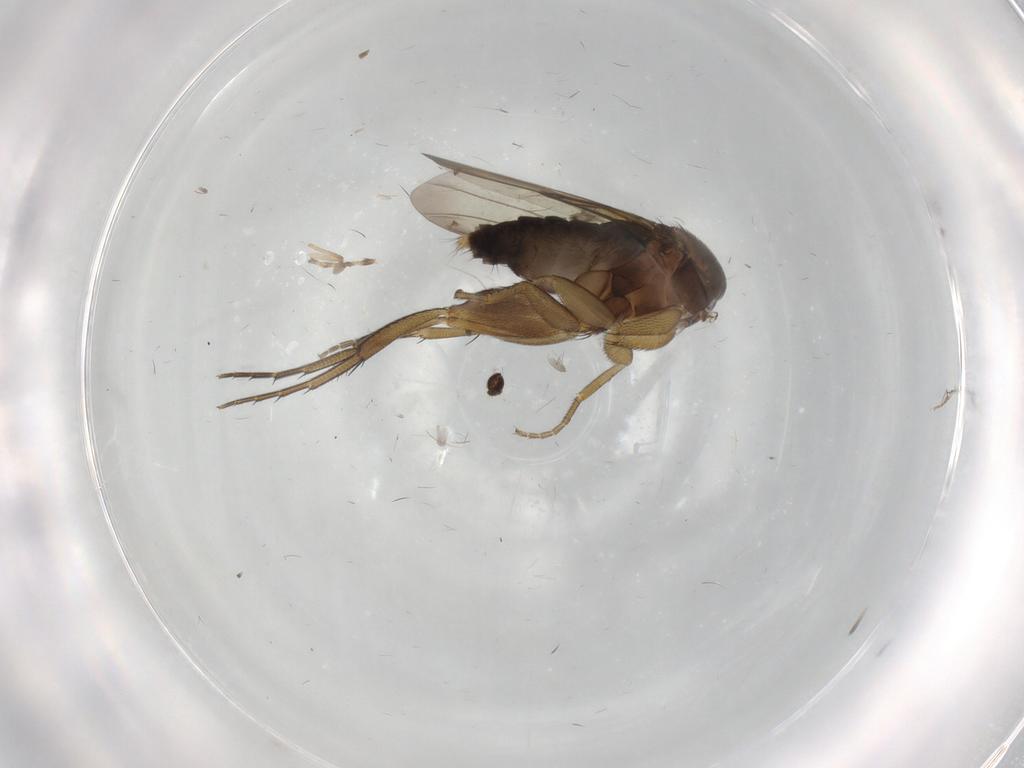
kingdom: Animalia
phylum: Arthropoda
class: Insecta
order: Diptera
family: Phoridae
